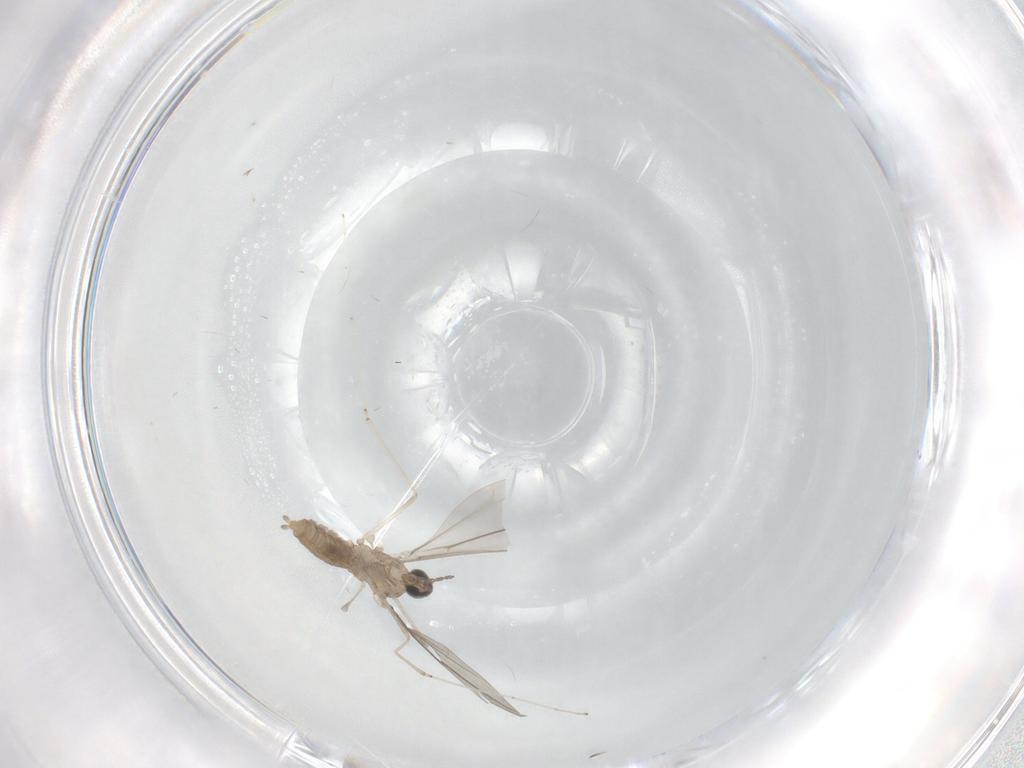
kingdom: Animalia
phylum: Arthropoda
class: Insecta
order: Diptera
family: Cecidomyiidae
